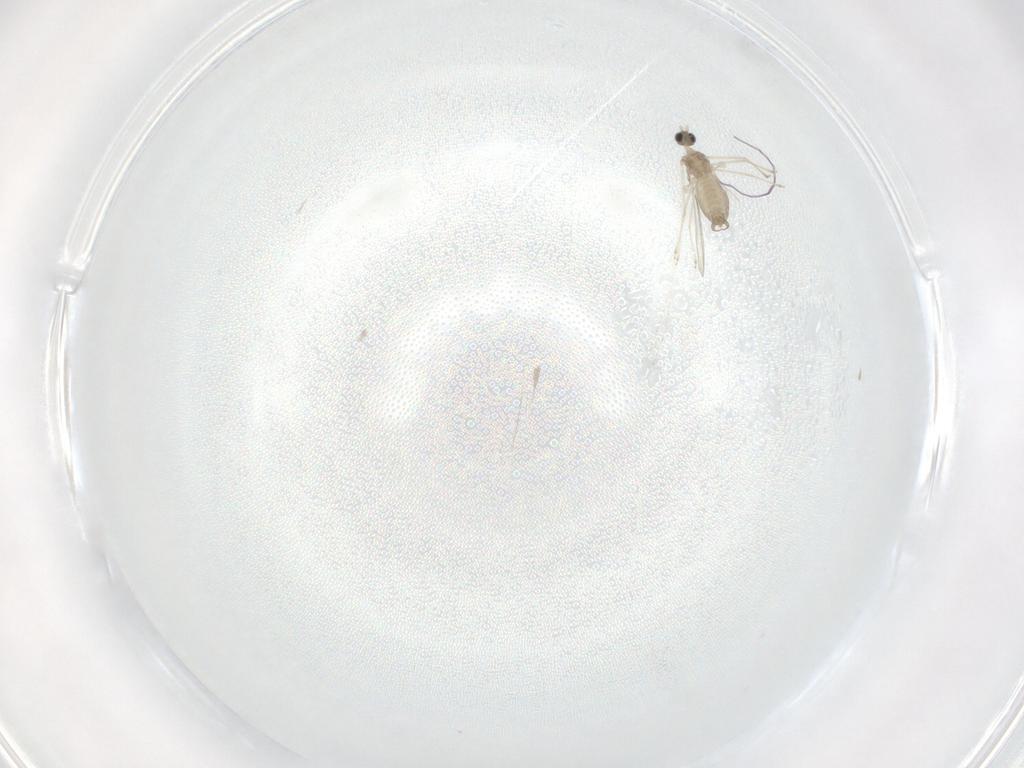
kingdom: Animalia
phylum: Arthropoda
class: Insecta
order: Diptera
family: Cecidomyiidae
